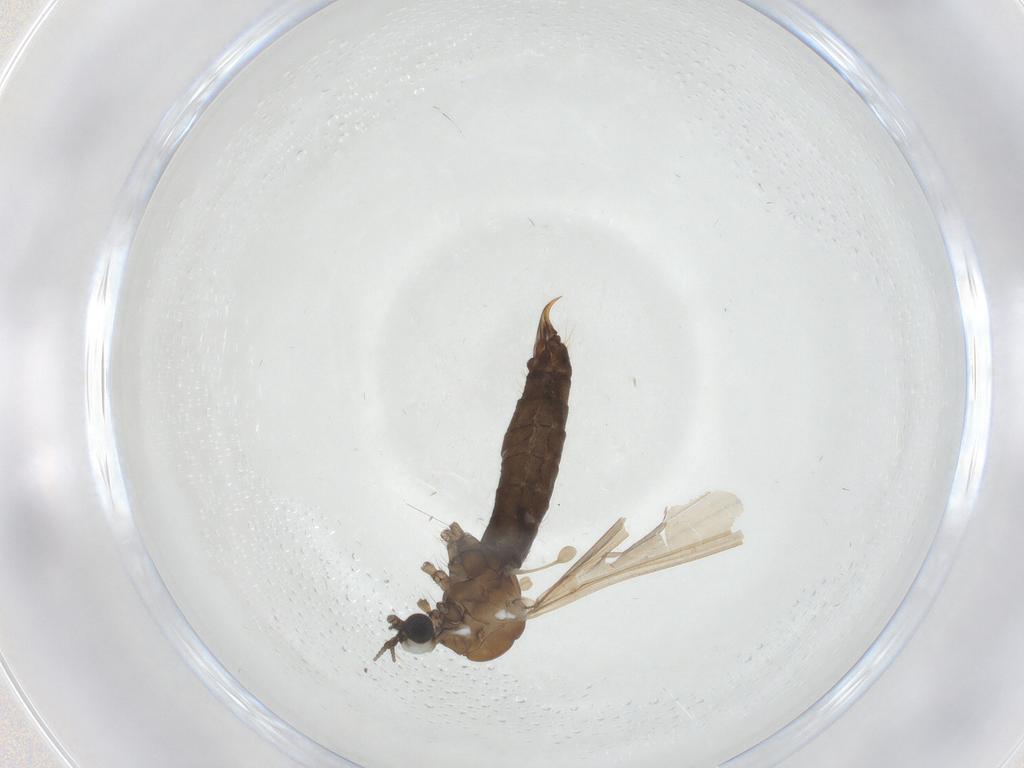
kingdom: Animalia
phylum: Arthropoda
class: Insecta
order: Diptera
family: Limoniidae
